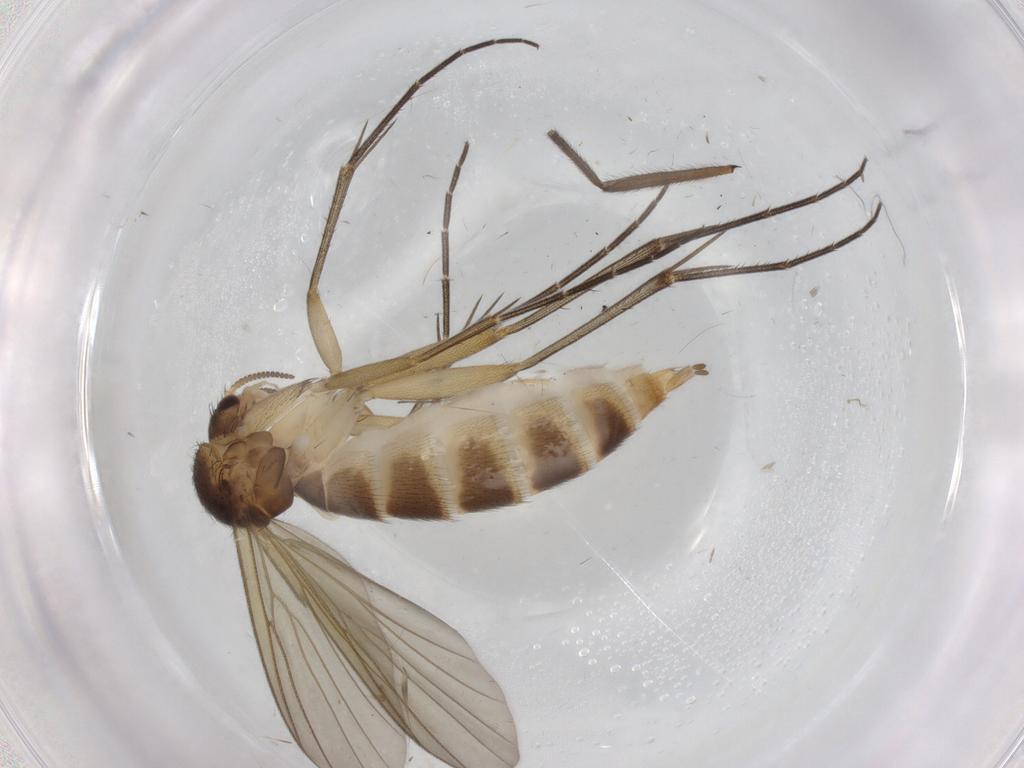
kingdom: Animalia
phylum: Arthropoda
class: Insecta
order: Diptera
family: Mycetophilidae
